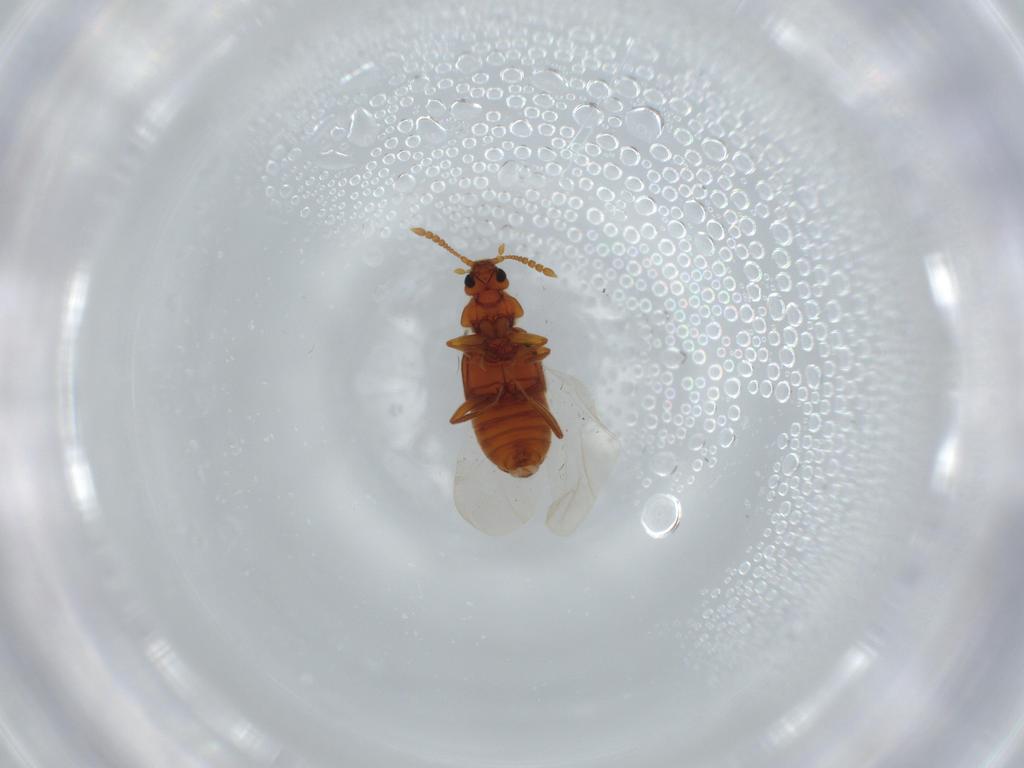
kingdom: Animalia
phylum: Arthropoda
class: Insecta
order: Coleoptera
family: Staphylinidae
